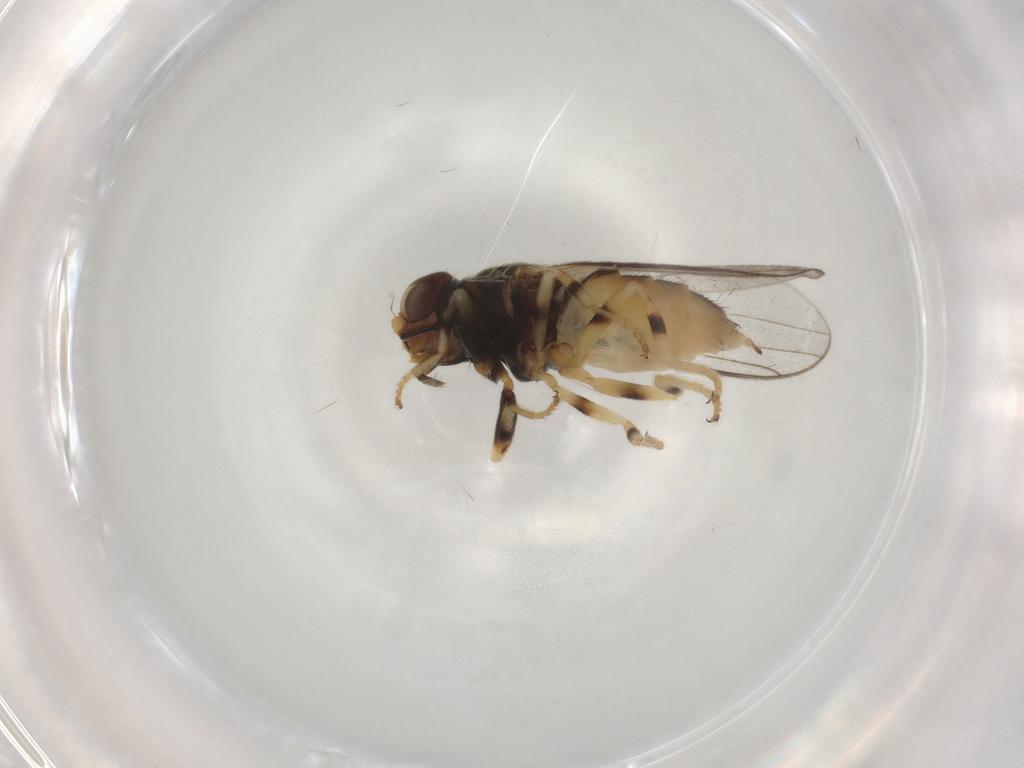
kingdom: Animalia
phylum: Arthropoda
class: Insecta
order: Diptera
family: Chloropidae
